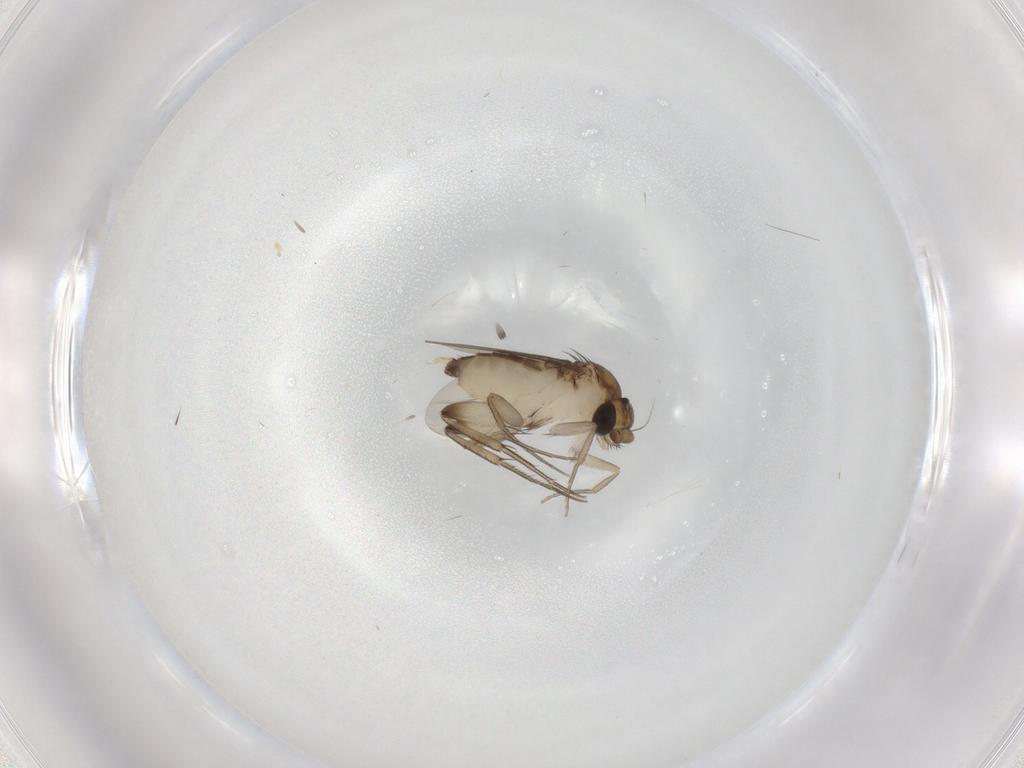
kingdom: Animalia
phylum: Arthropoda
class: Insecta
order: Diptera
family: Phoridae
